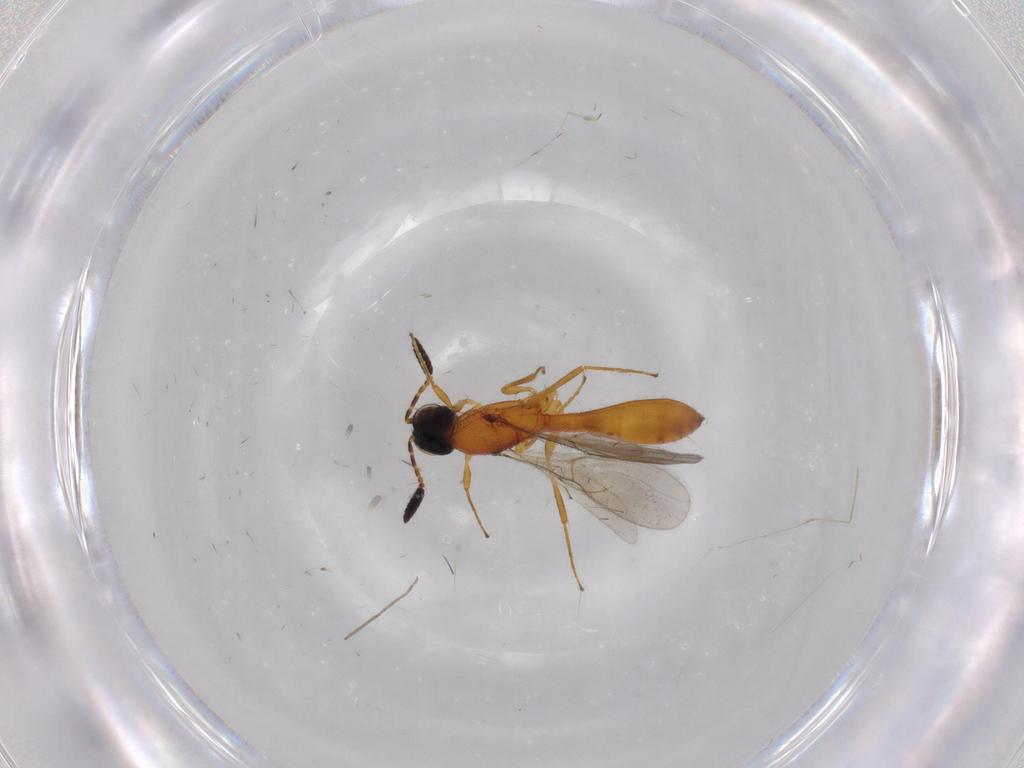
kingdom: Animalia
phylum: Arthropoda
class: Insecta
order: Hymenoptera
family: Scelionidae
